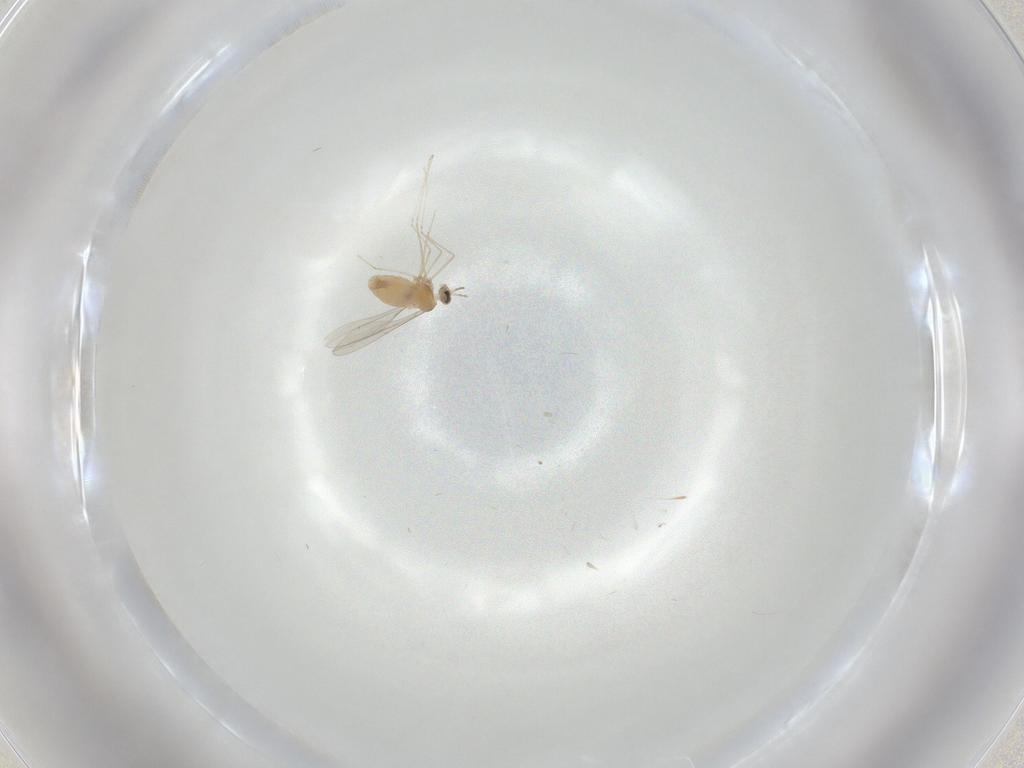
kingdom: Animalia
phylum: Arthropoda
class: Insecta
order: Diptera
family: Cecidomyiidae
